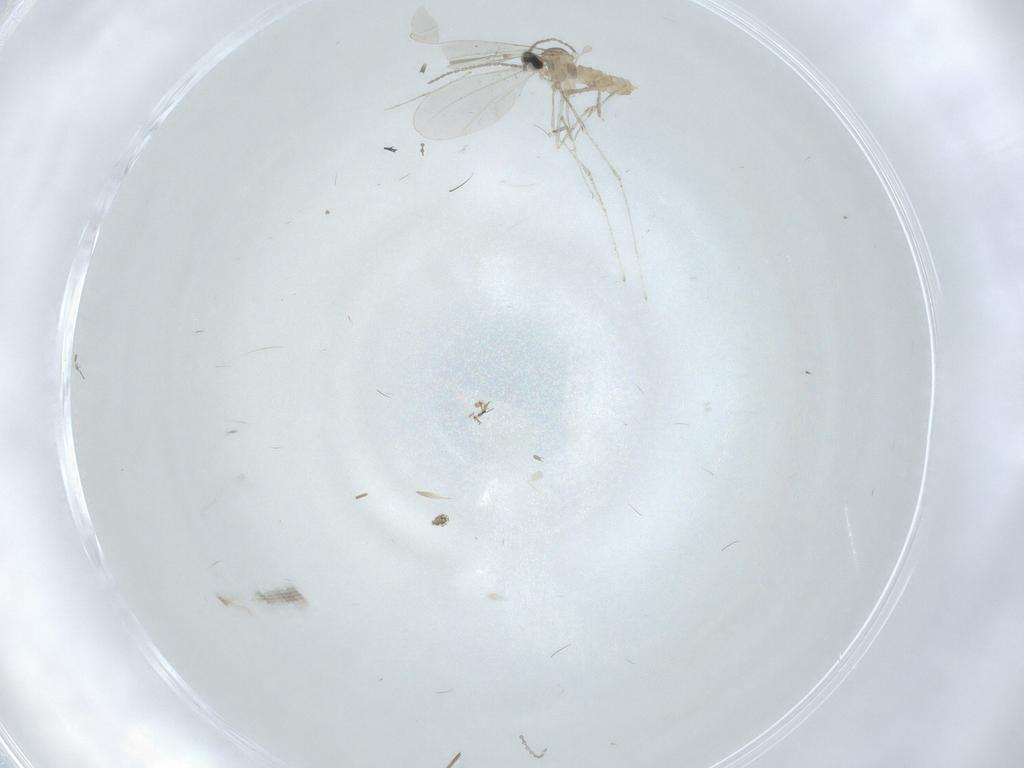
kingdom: Animalia
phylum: Arthropoda
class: Insecta
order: Diptera
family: Cecidomyiidae
